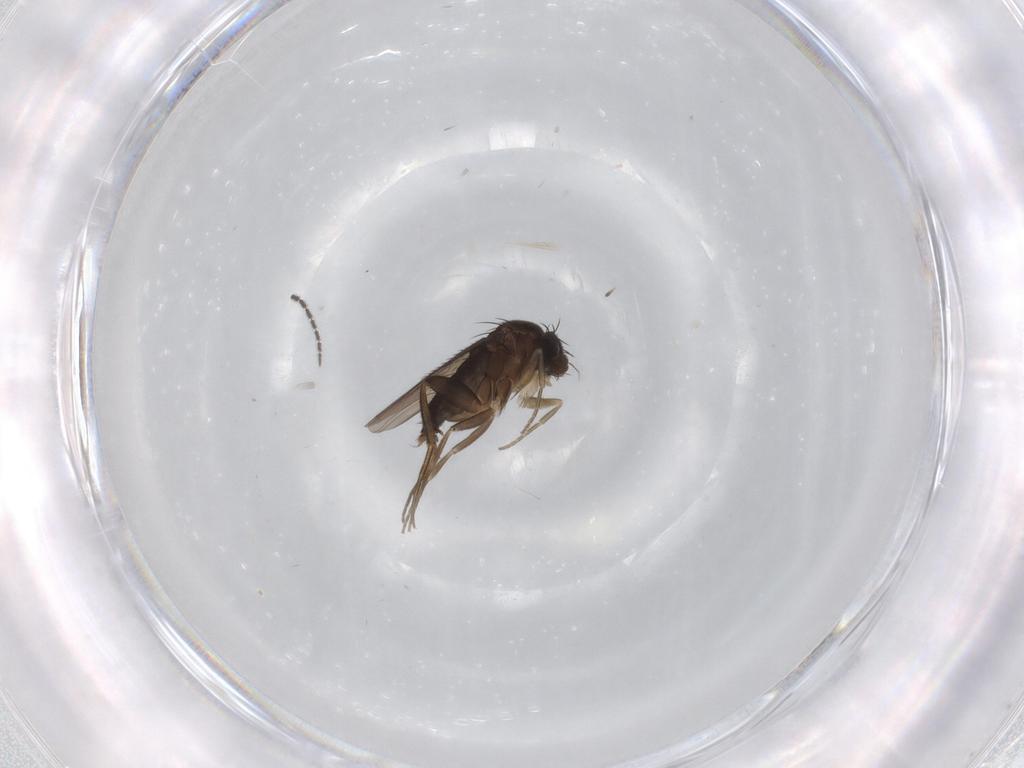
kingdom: Animalia
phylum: Arthropoda
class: Insecta
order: Diptera
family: Phoridae
